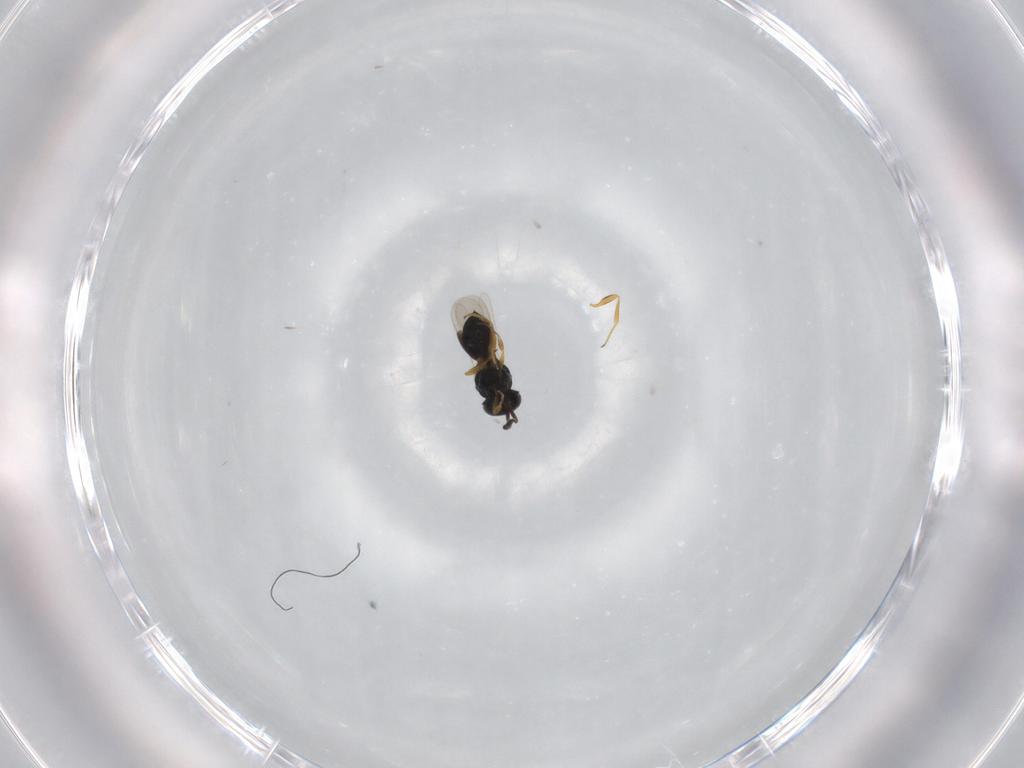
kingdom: Animalia
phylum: Arthropoda
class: Insecta
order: Hymenoptera
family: Scelionidae
